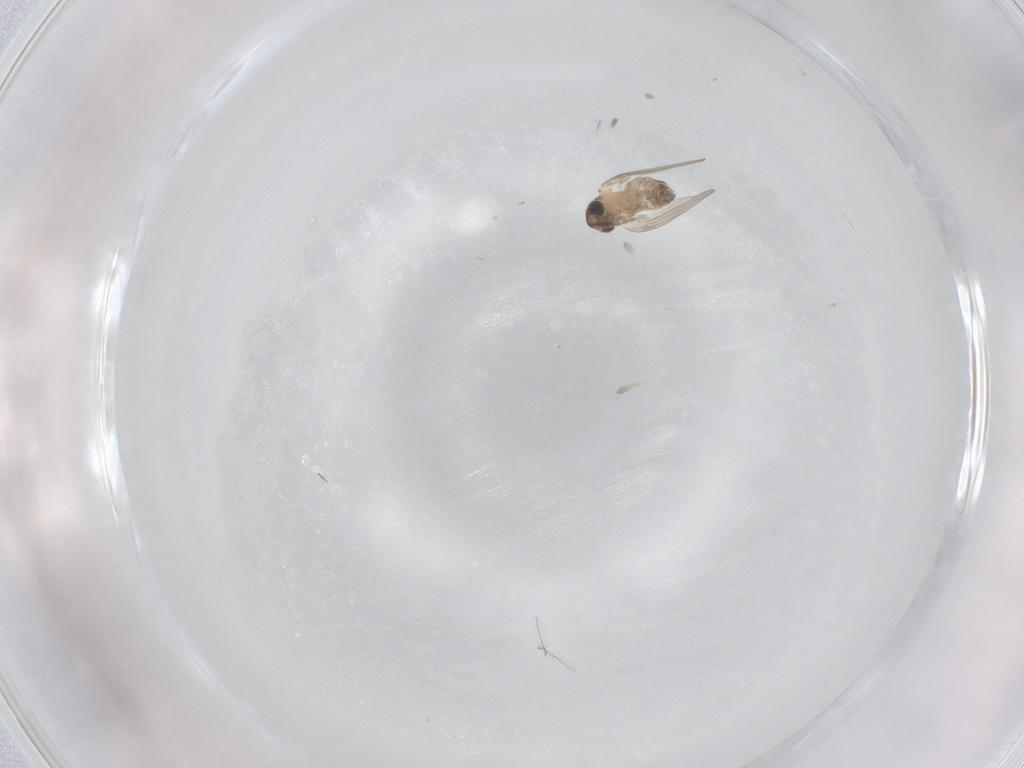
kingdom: Animalia
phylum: Arthropoda
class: Insecta
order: Diptera
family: Psychodidae
